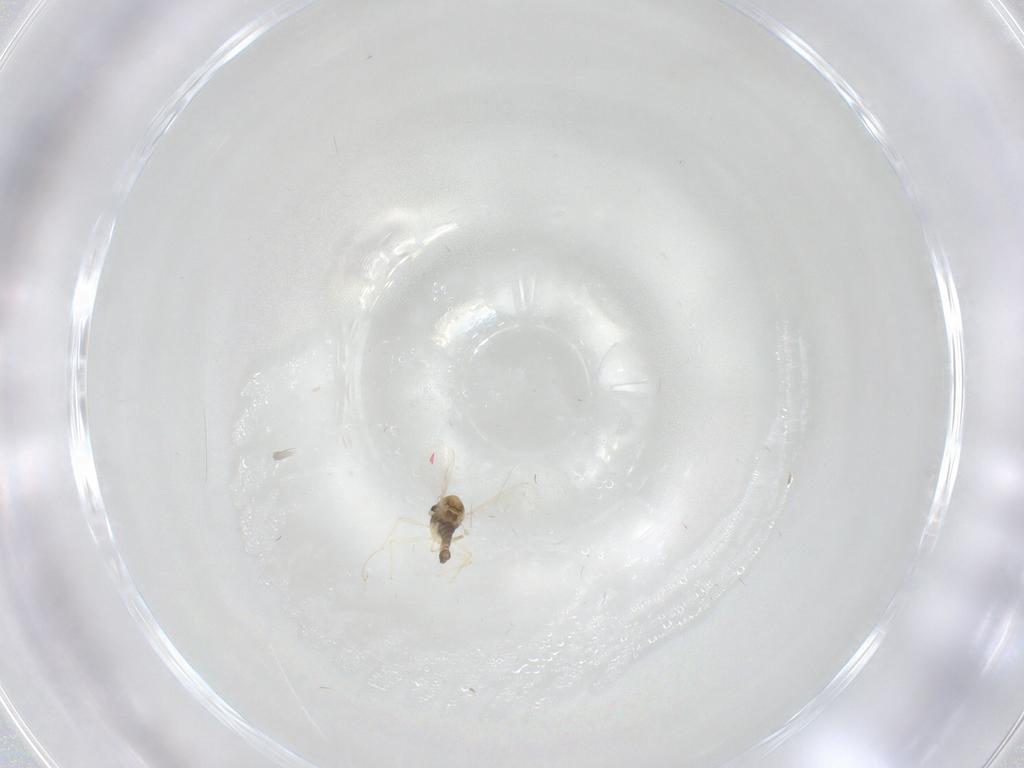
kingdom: Animalia
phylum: Arthropoda
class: Insecta
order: Diptera
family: Chironomidae
